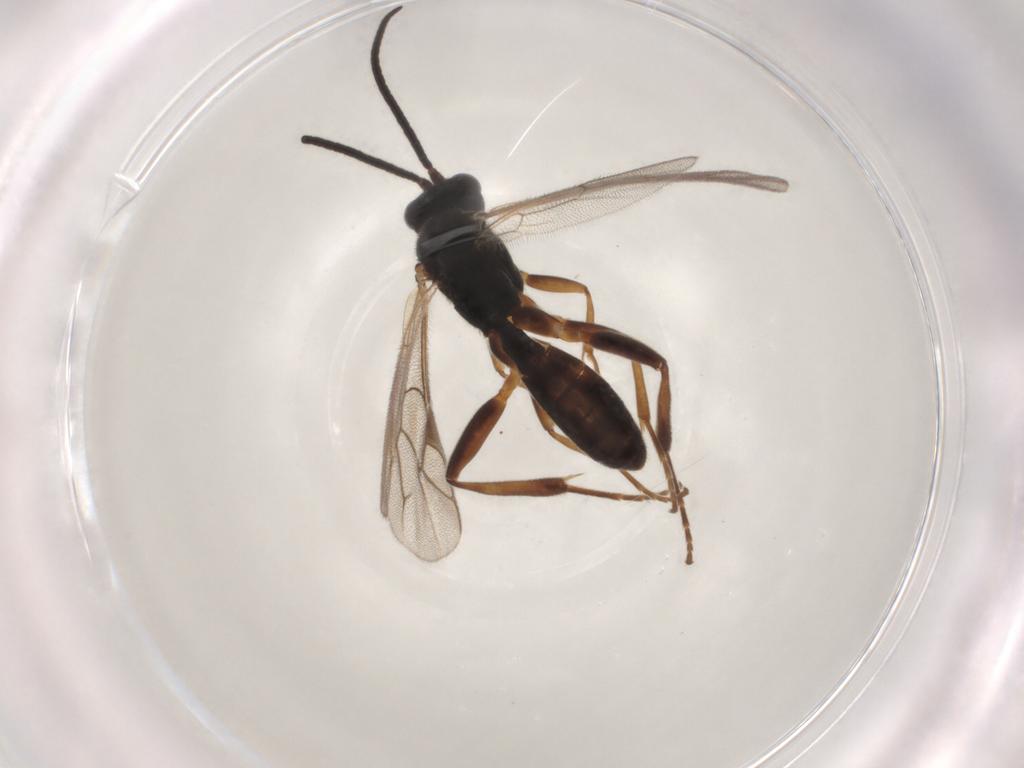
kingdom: Animalia
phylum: Arthropoda
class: Insecta
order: Hymenoptera
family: Ichneumonidae
